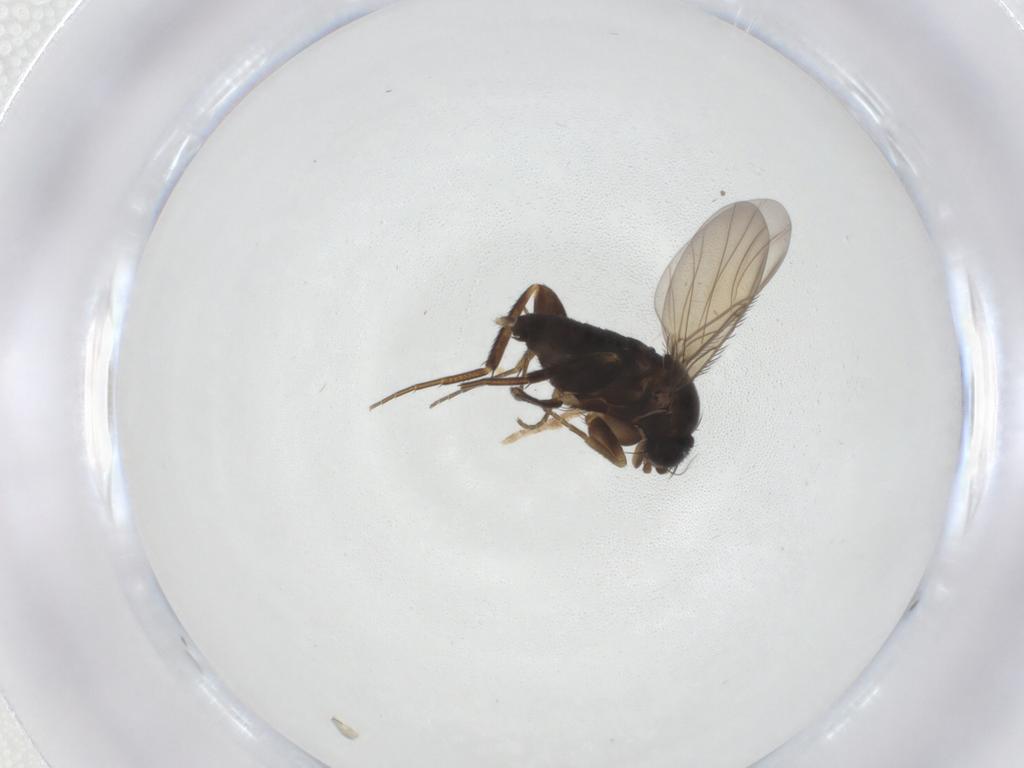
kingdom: Animalia
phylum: Arthropoda
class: Insecta
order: Diptera
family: Phoridae
